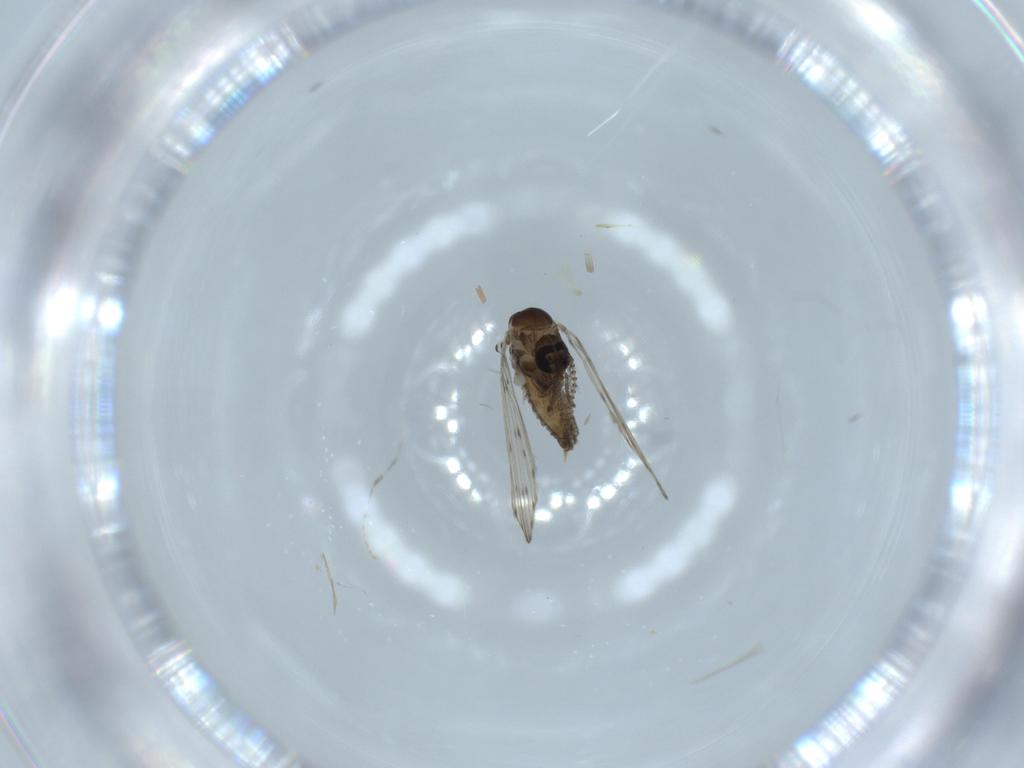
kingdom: Animalia
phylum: Arthropoda
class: Insecta
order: Diptera
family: Psychodidae
